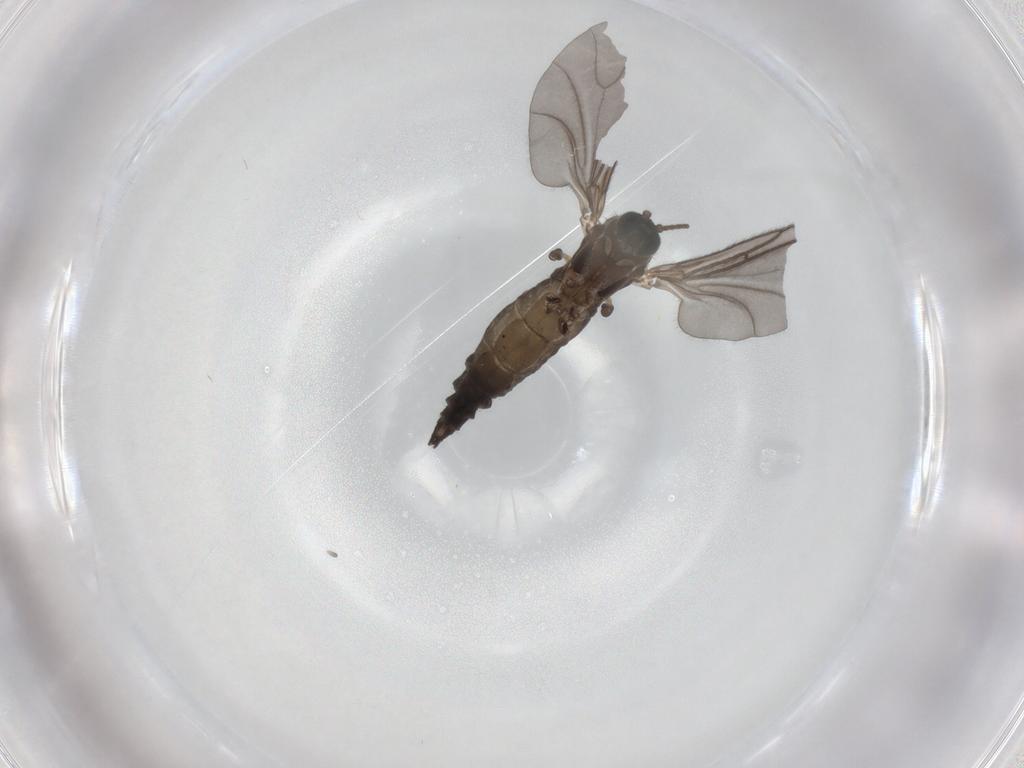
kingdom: Animalia
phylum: Arthropoda
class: Insecta
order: Diptera
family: Sciaridae
